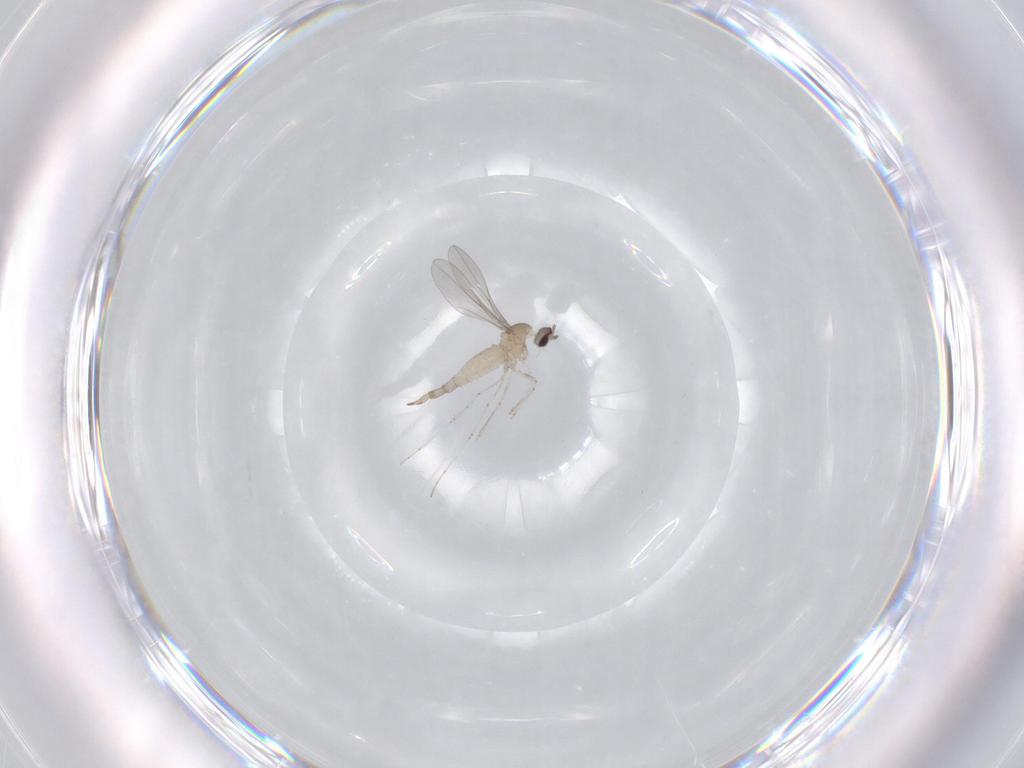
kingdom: Animalia
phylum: Arthropoda
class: Insecta
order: Diptera
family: Cecidomyiidae
